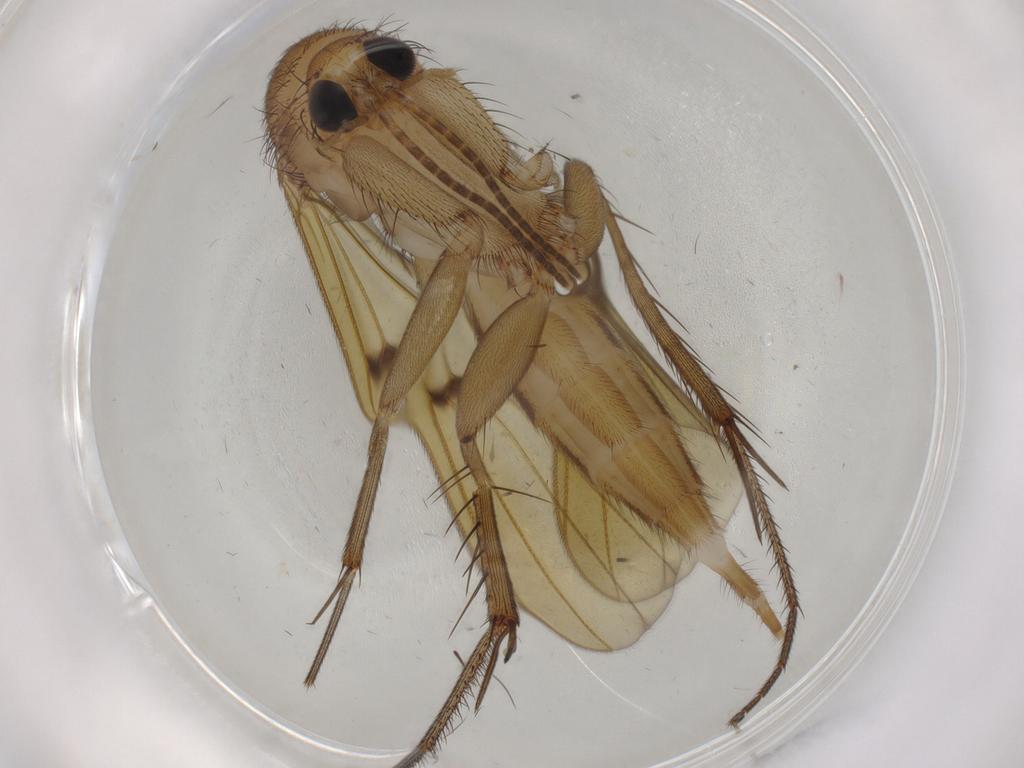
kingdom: Animalia
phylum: Arthropoda
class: Insecta
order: Diptera
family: Mycetophilidae
